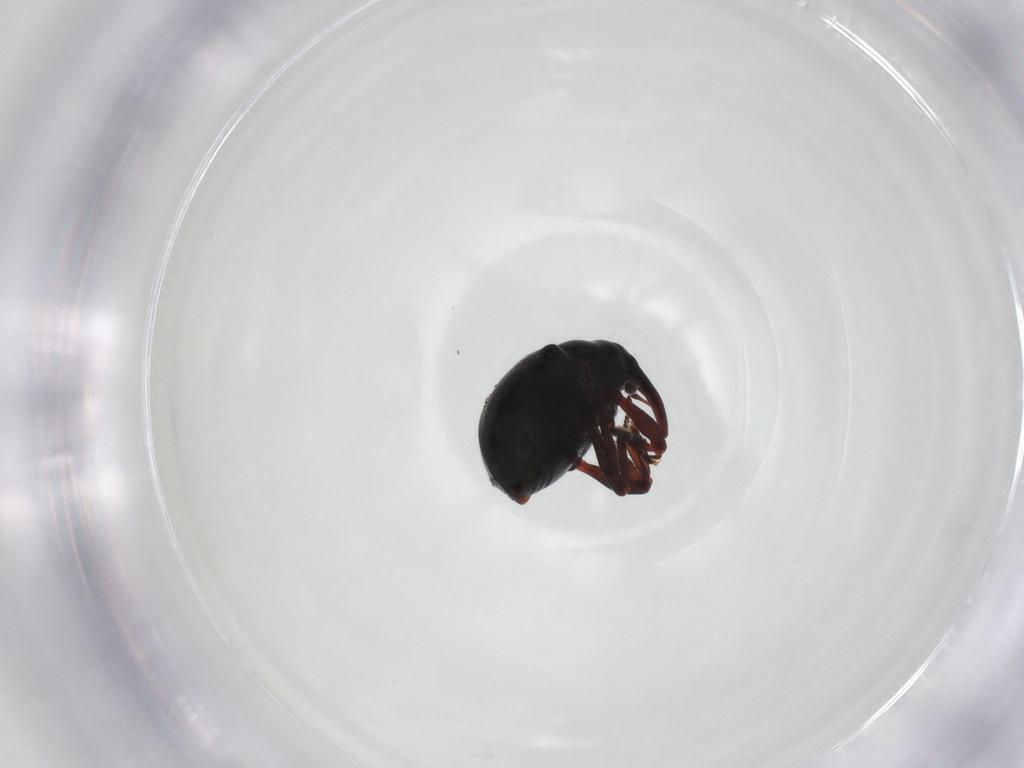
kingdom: Animalia
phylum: Arthropoda
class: Insecta
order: Coleoptera
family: Curculionidae
